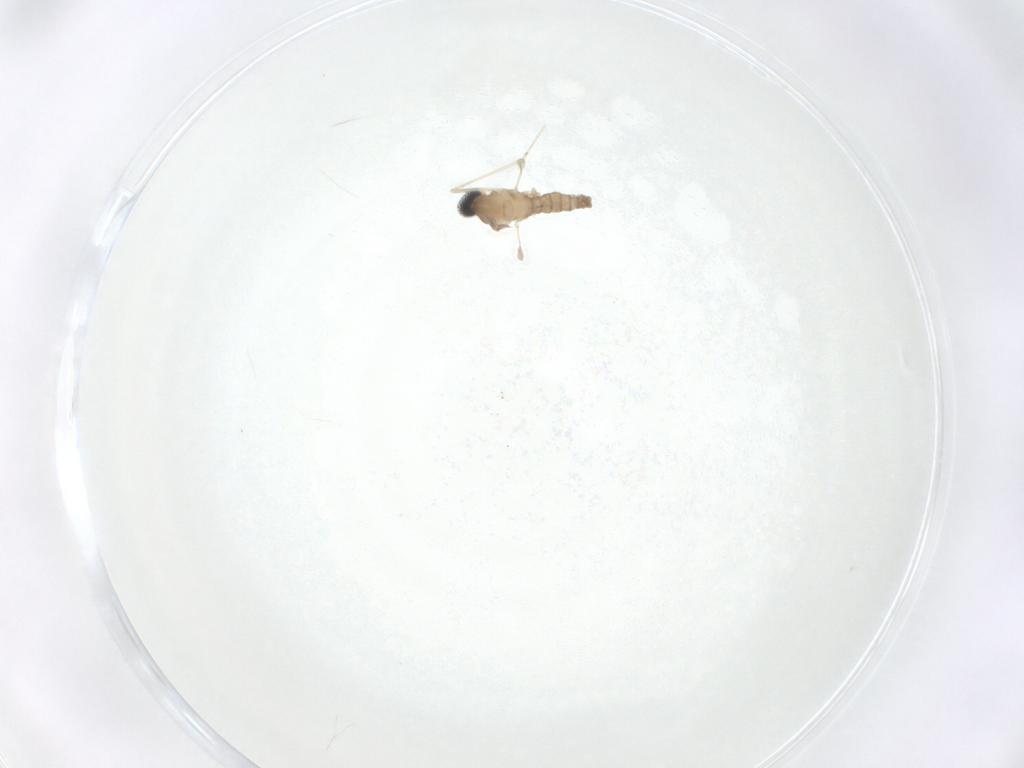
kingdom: Animalia
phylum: Arthropoda
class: Insecta
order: Diptera
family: Cecidomyiidae
